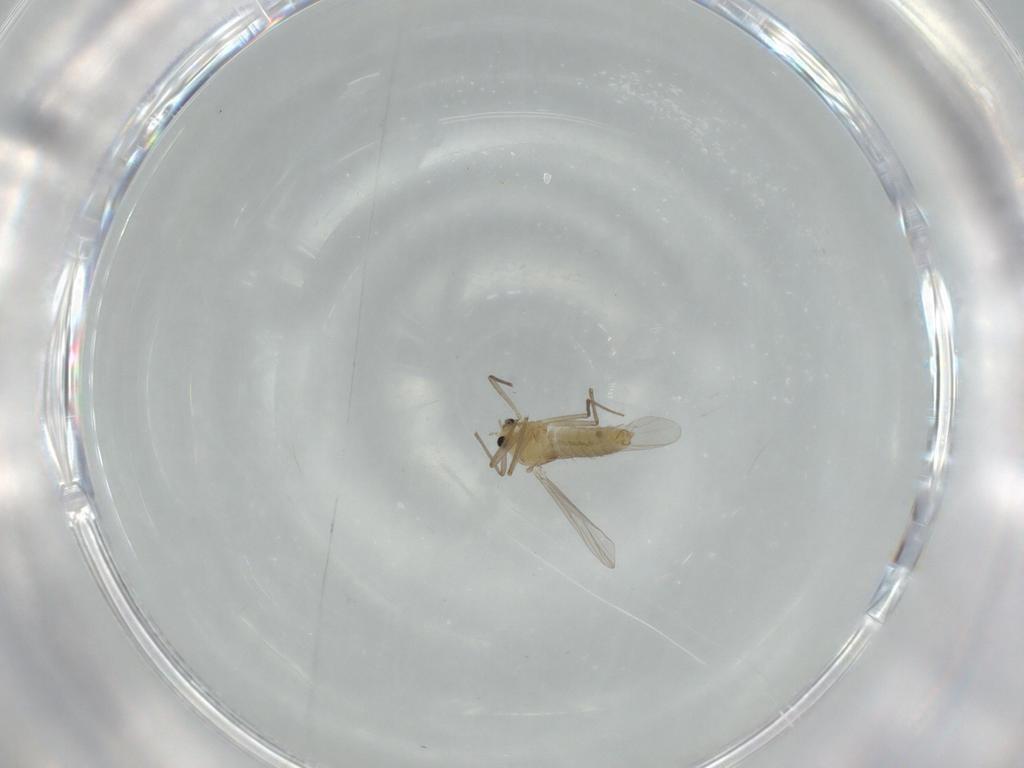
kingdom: Animalia
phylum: Arthropoda
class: Insecta
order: Diptera
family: Chironomidae
